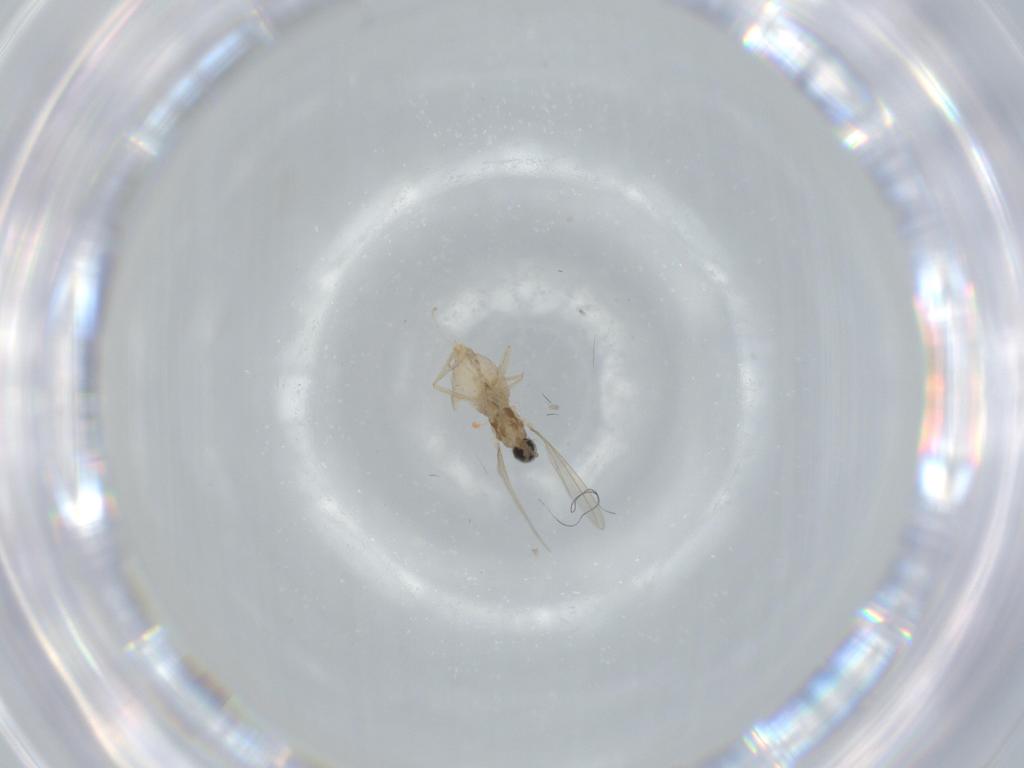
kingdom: Animalia
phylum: Arthropoda
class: Insecta
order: Diptera
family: Cecidomyiidae
